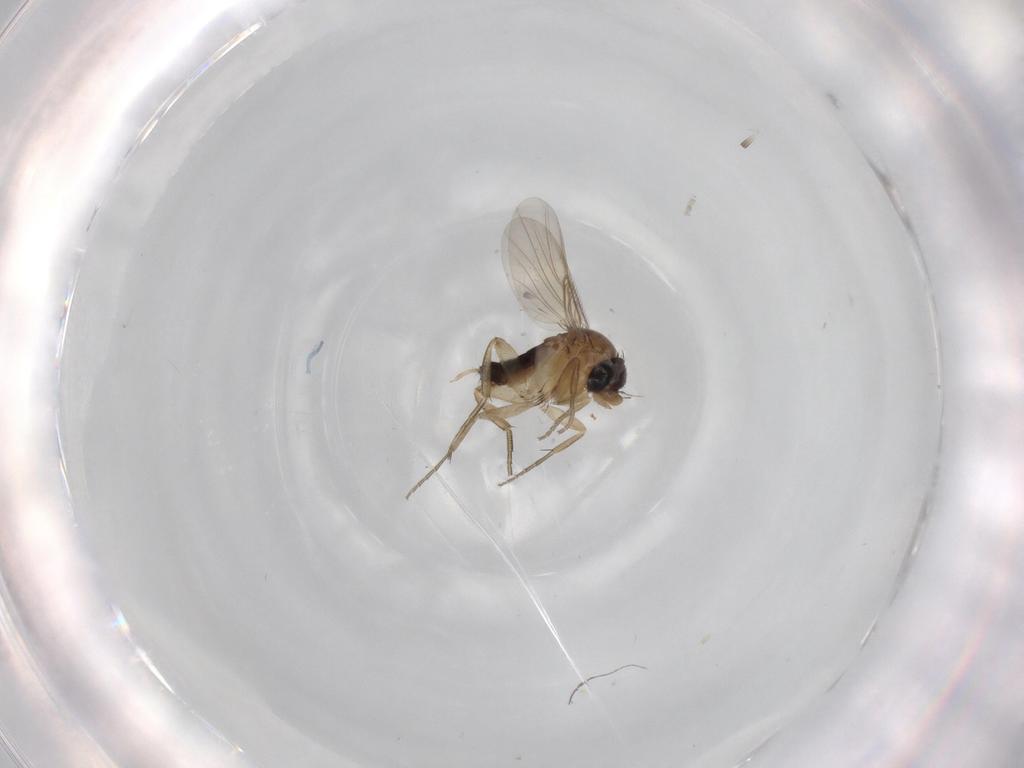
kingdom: Animalia
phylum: Arthropoda
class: Insecta
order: Diptera
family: Phoridae
